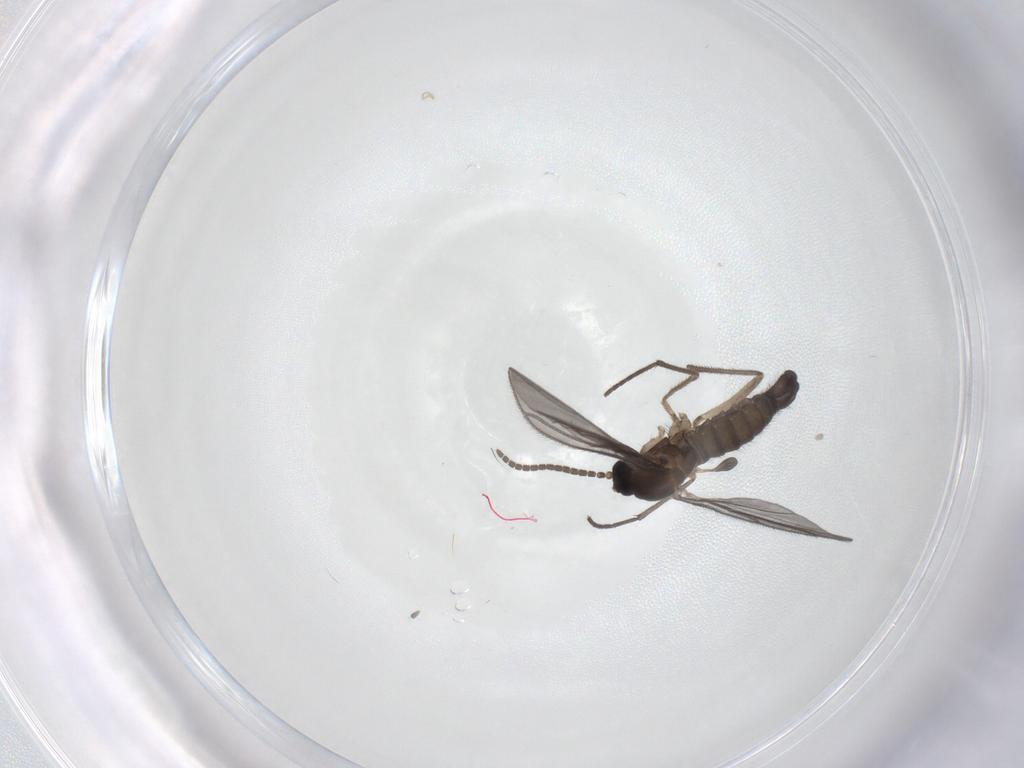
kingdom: Animalia
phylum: Arthropoda
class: Insecta
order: Diptera
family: Sciaridae
